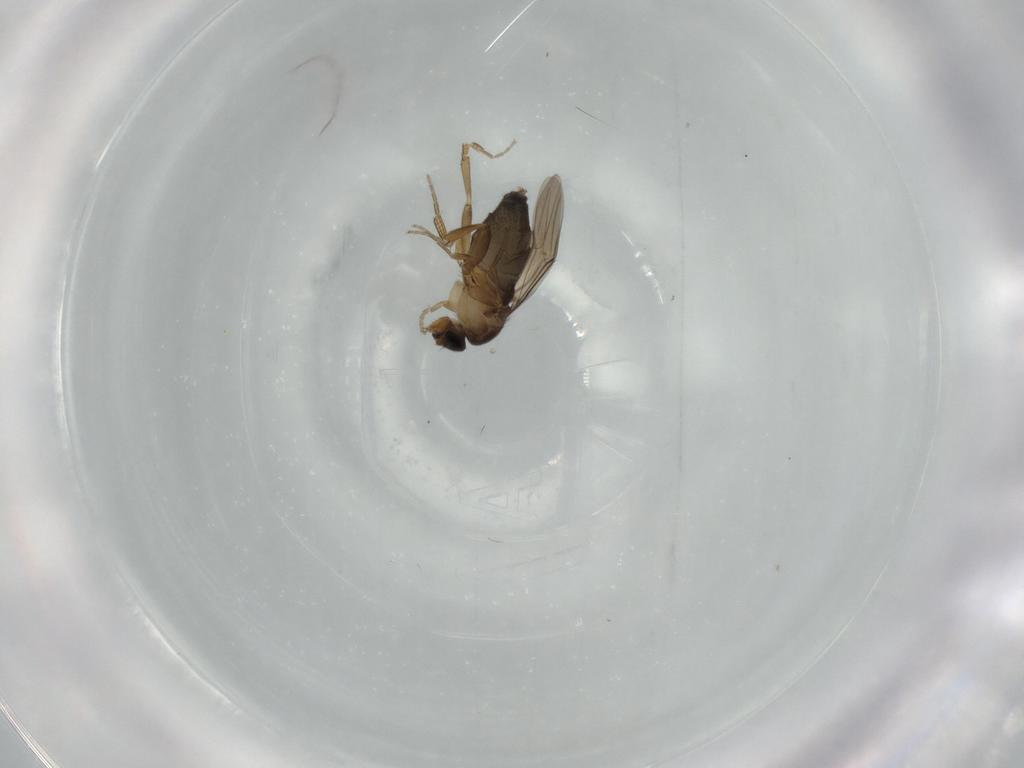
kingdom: Animalia
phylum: Arthropoda
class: Insecta
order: Diptera
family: Phoridae
